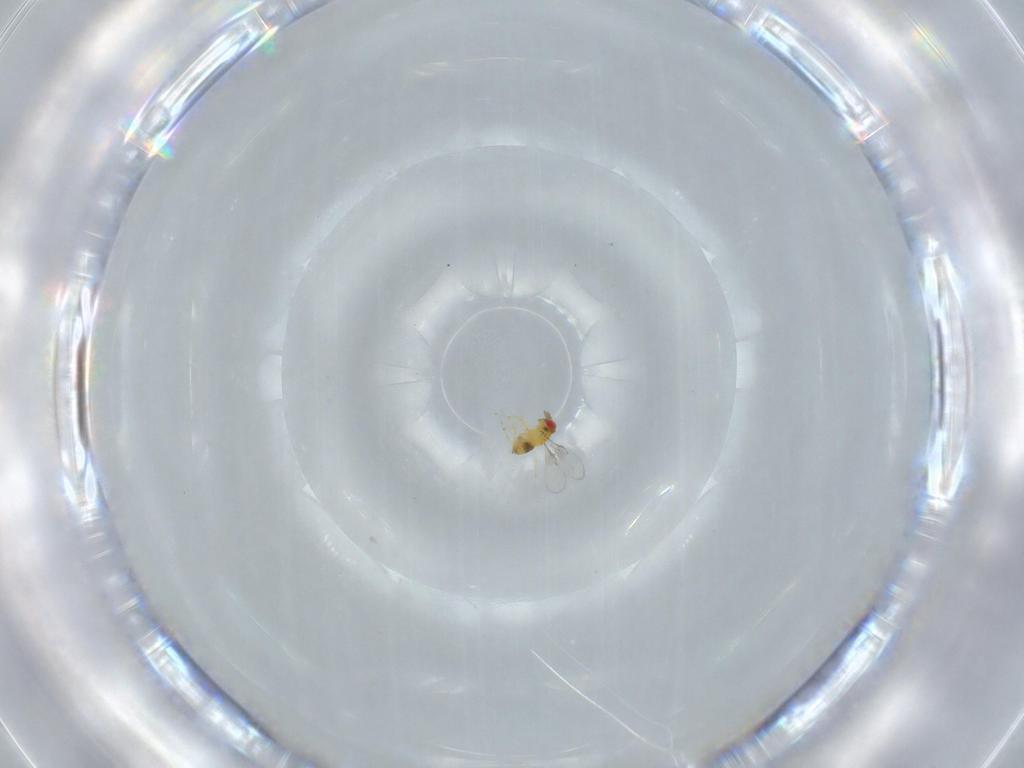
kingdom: Animalia
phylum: Arthropoda
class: Insecta
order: Hymenoptera
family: Trichogrammatidae
